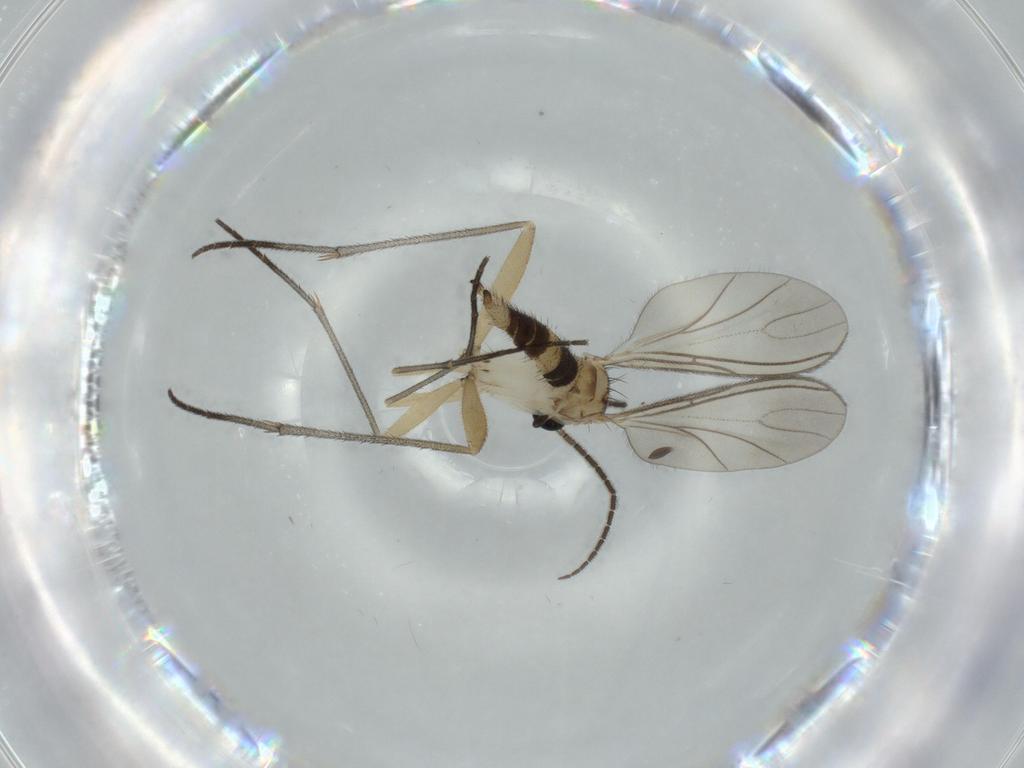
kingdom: Animalia
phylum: Arthropoda
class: Insecta
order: Diptera
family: Sciaridae
